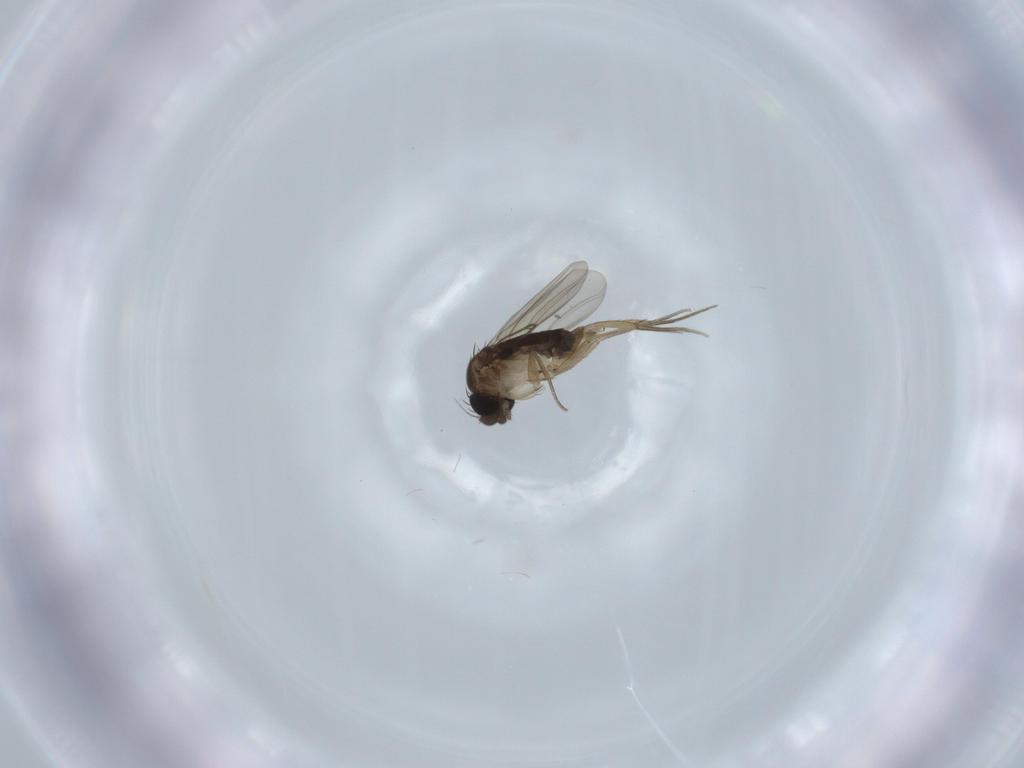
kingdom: Animalia
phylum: Arthropoda
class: Insecta
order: Diptera
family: Chironomidae
